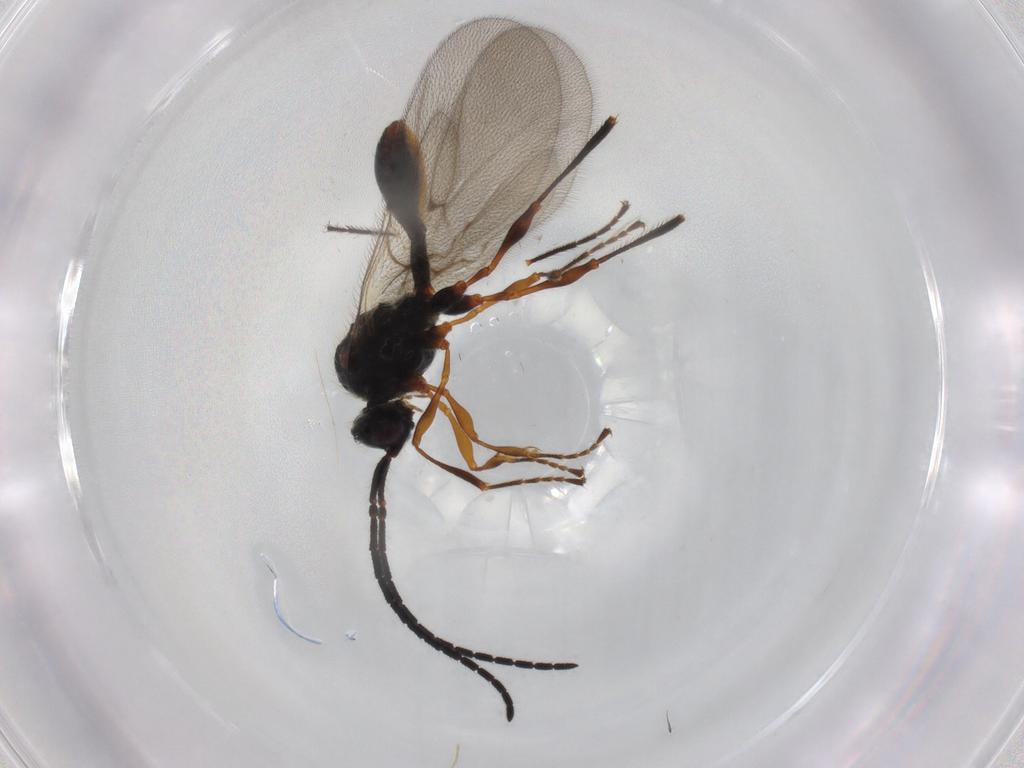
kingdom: Animalia
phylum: Arthropoda
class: Insecta
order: Hymenoptera
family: Diapriidae
